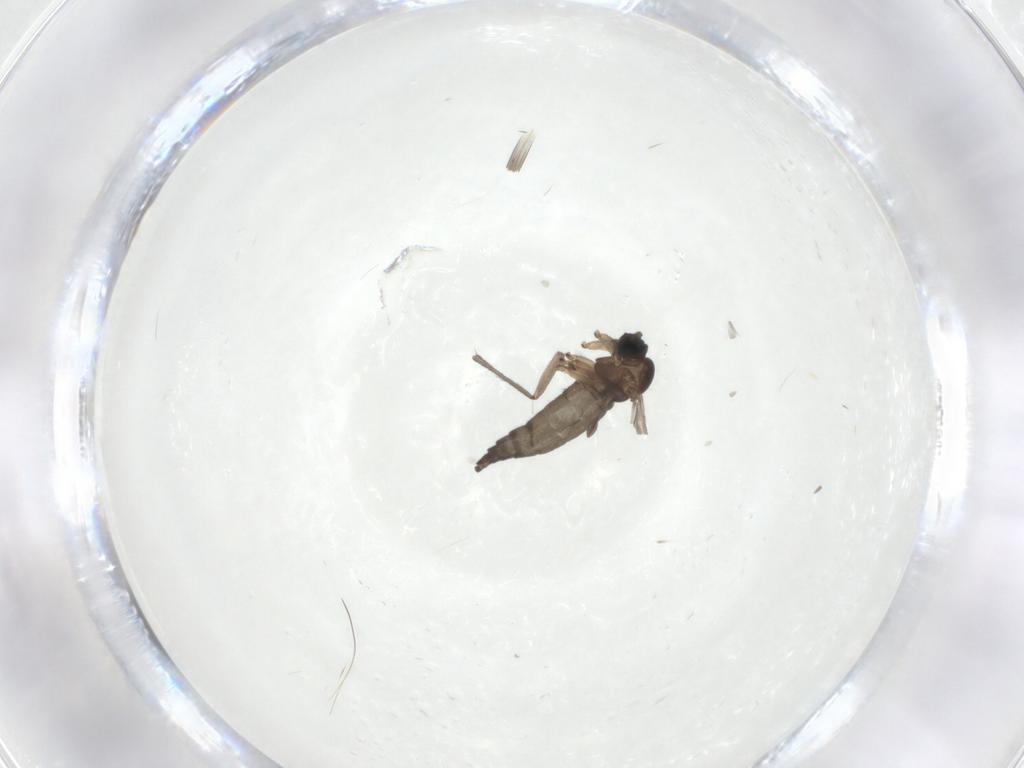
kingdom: Animalia
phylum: Arthropoda
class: Insecta
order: Diptera
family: Sciaridae
